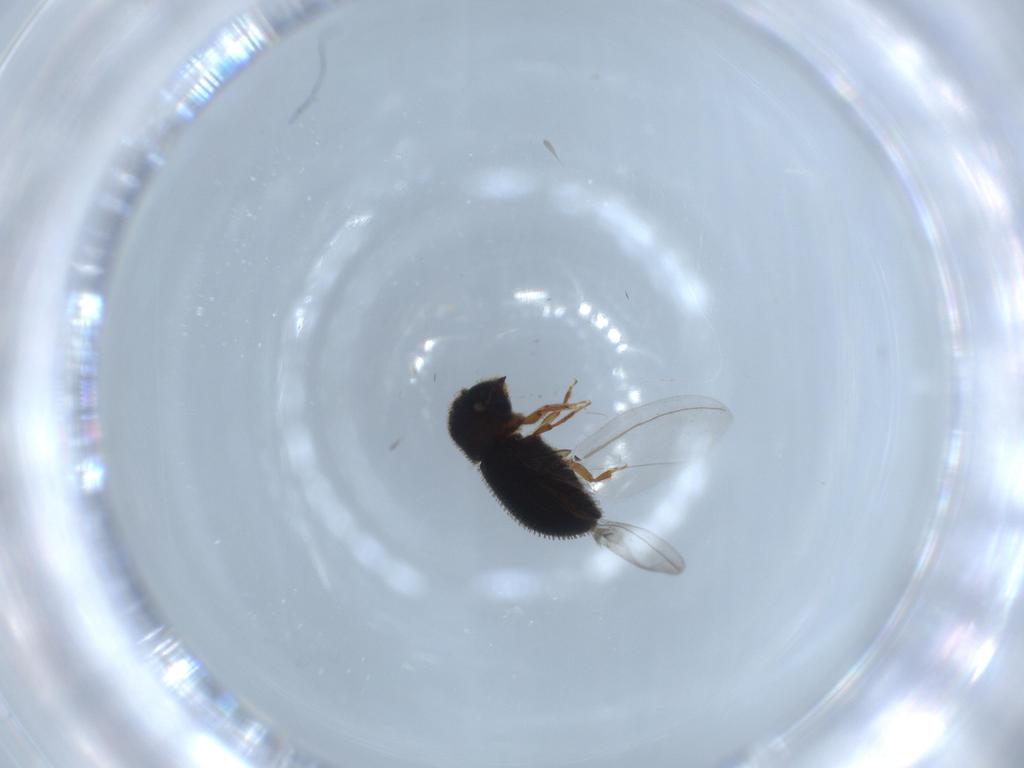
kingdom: Animalia
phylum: Arthropoda
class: Insecta
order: Coleoptera
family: Curculionidae
